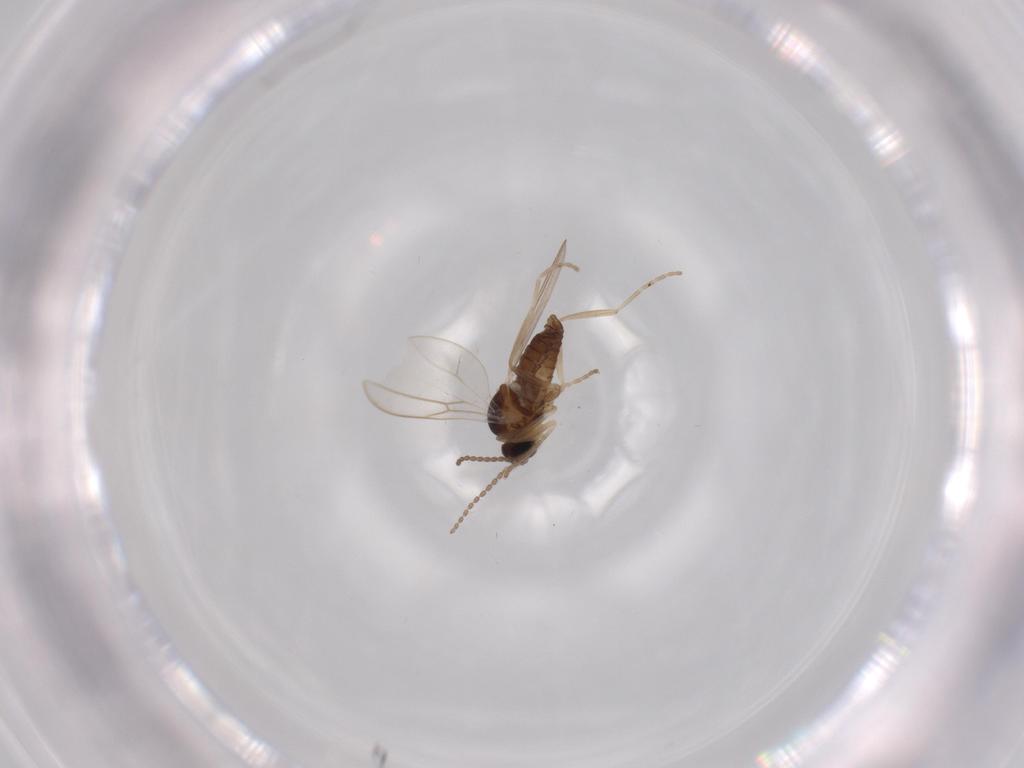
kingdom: Animalia
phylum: Arthropoda
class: Insecta
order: Diptera
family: Cecidomyiidae
